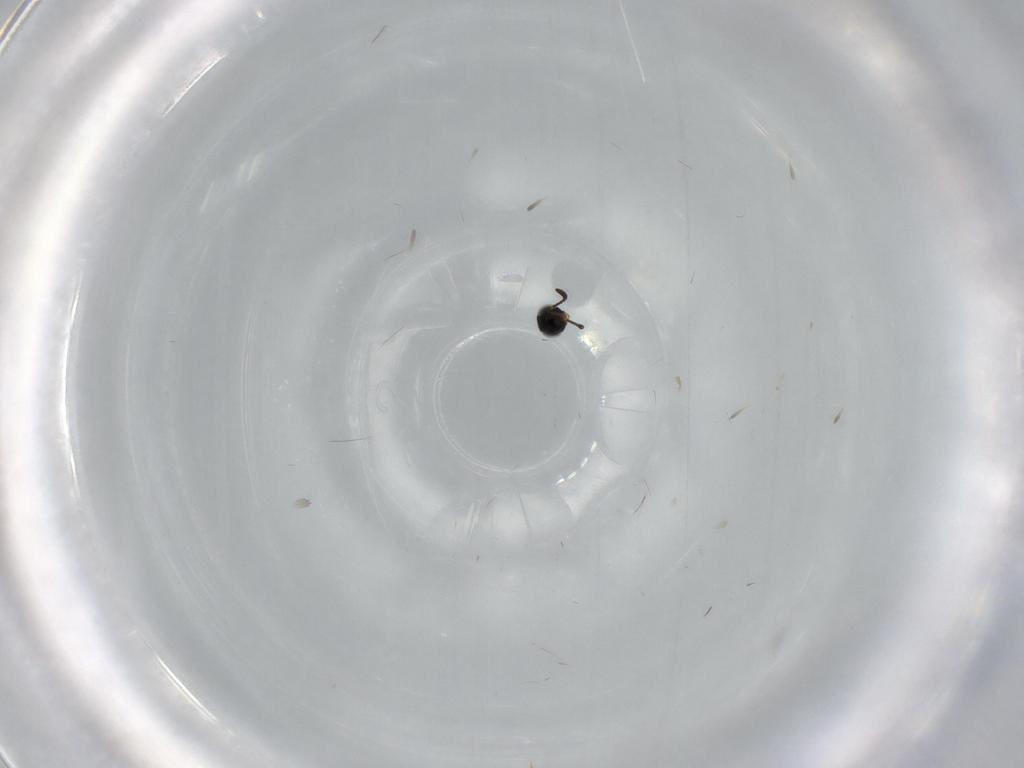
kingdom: Animalia
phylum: Arthropoda
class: Insecta
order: Hymenoptera
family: Scelionidae
